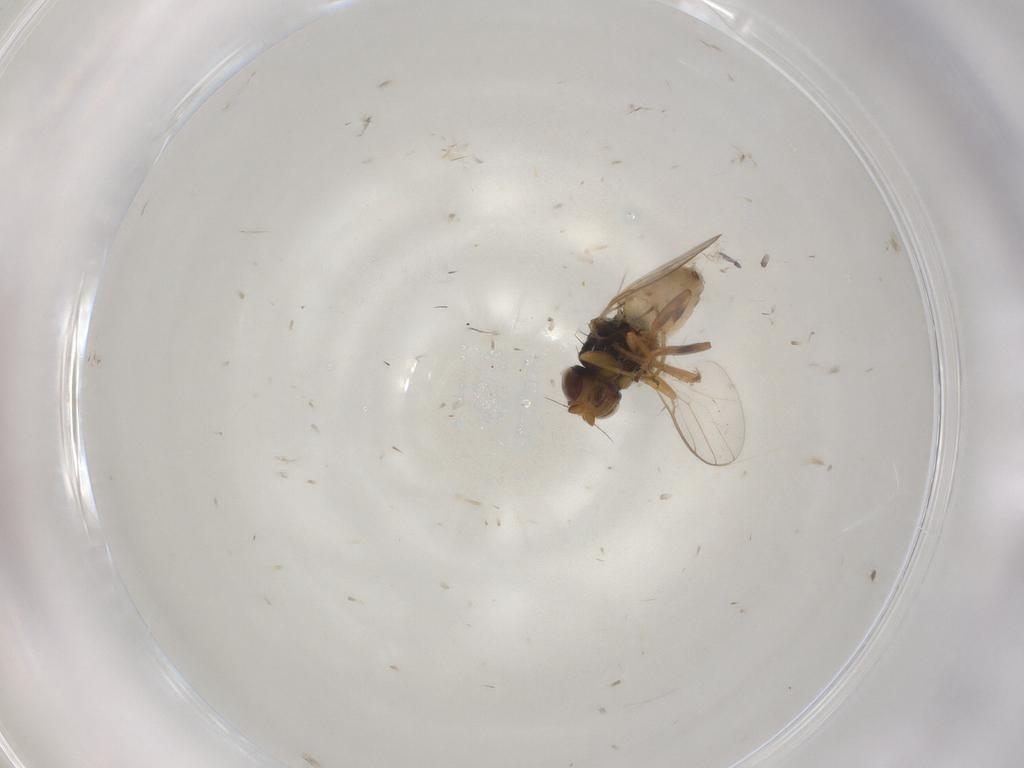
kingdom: Animalia
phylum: Arthropoda
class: Insecta
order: Diptera
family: Chloropidae
